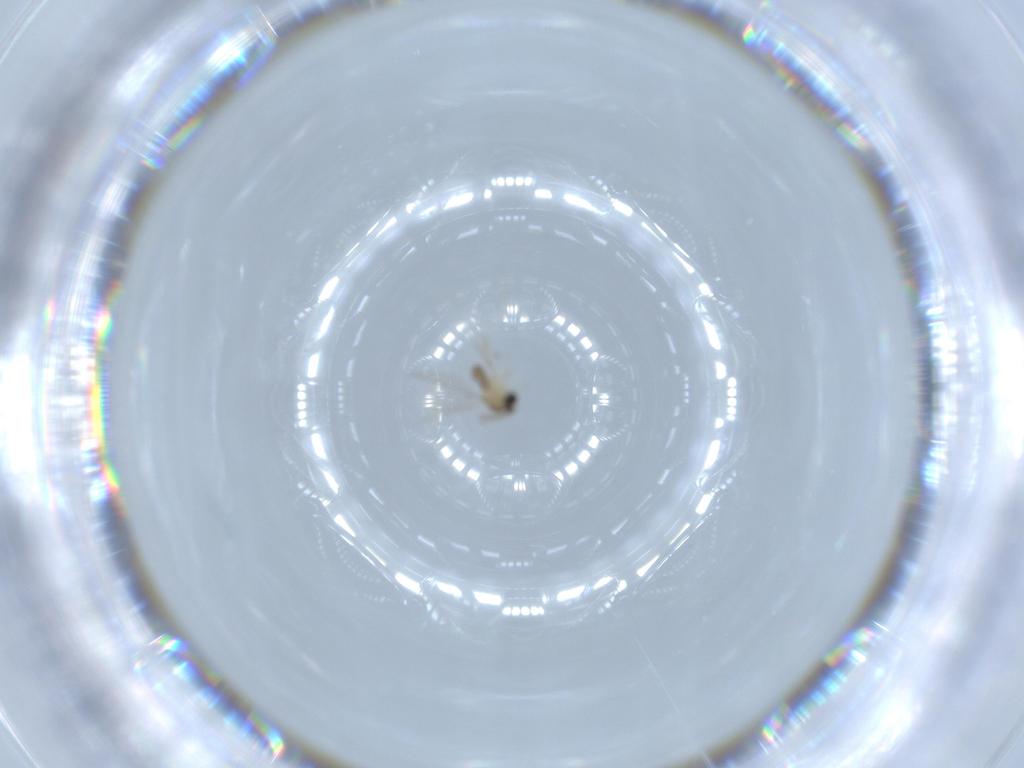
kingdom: Animalia
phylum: Arthropoda
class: Insecta
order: Diptera
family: Cecidomyiidae
